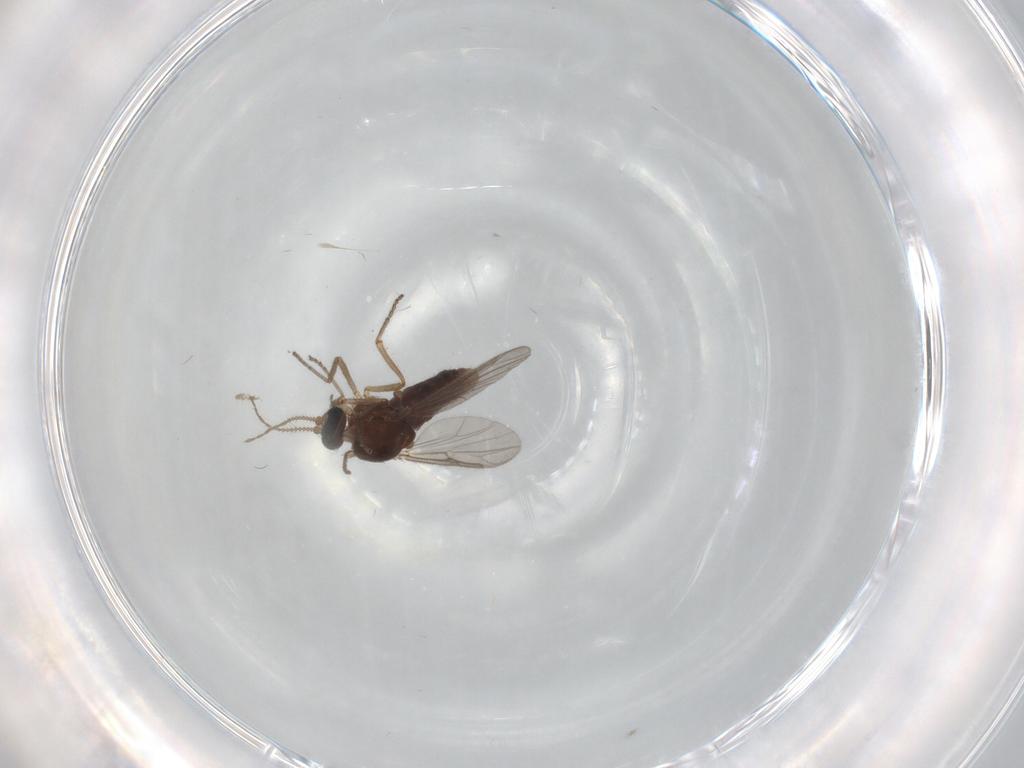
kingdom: Animalia
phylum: Arthropoda
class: Insecta
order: Diptera
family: Ceratopogonidae
